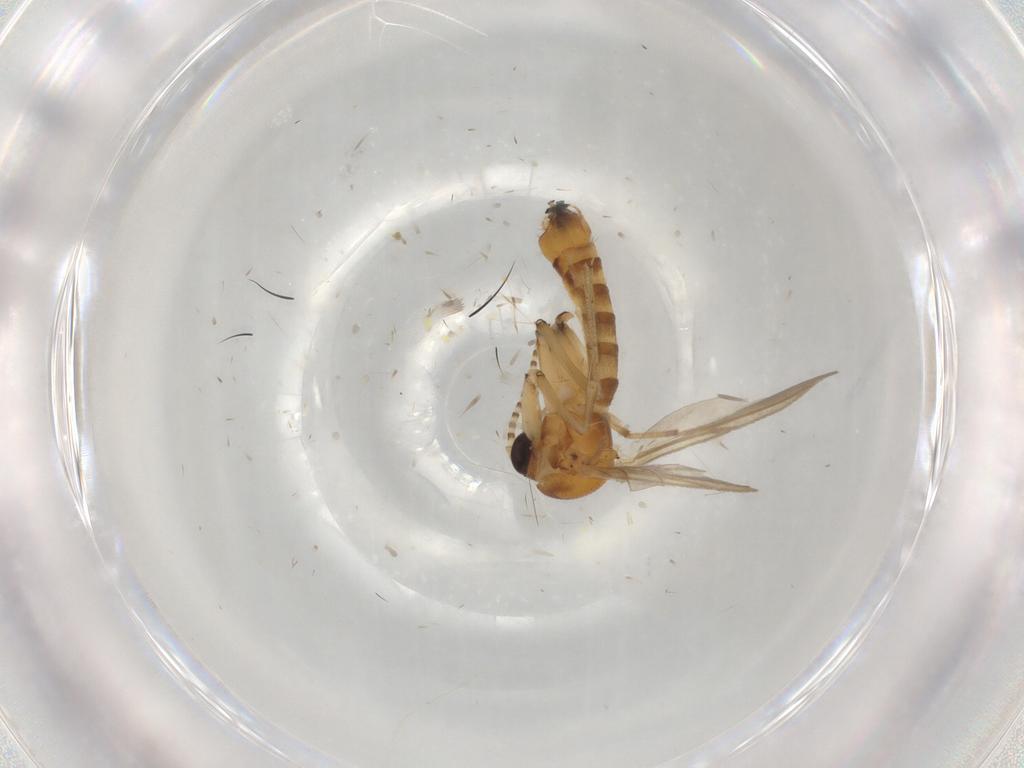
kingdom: Animalia
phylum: Arthropoda
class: Insecta
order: Diptera
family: Mycetophilidae
